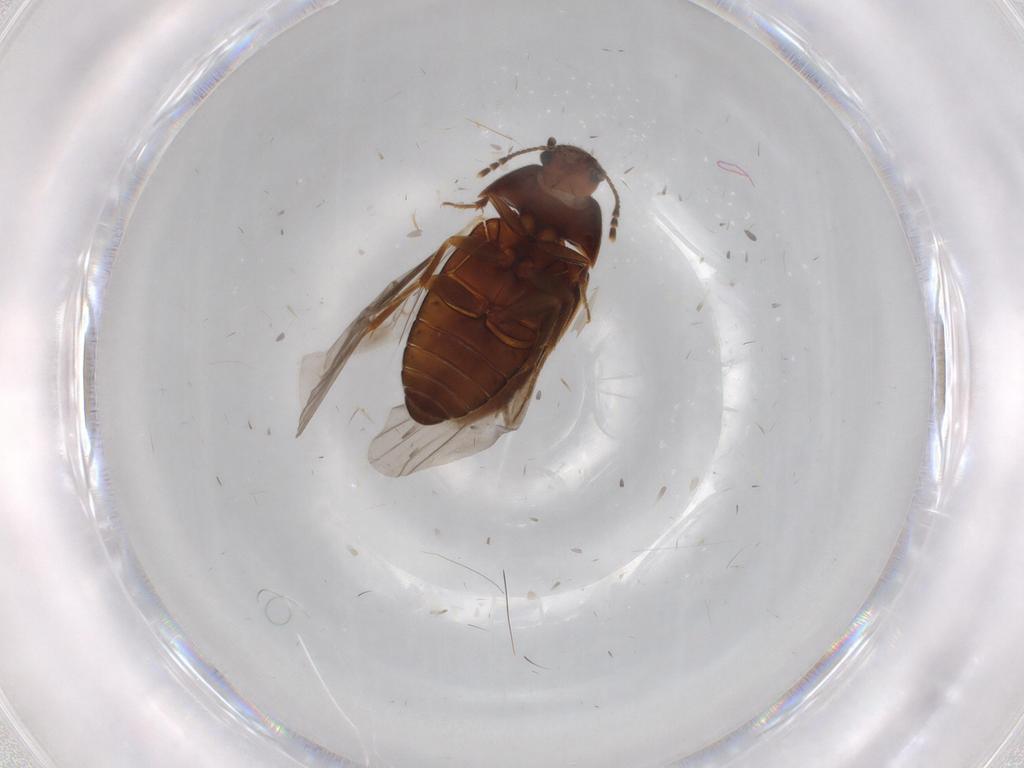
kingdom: Animalia
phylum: Arthropoda
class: Insecta
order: Coleoptera
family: Mycetophagidae
